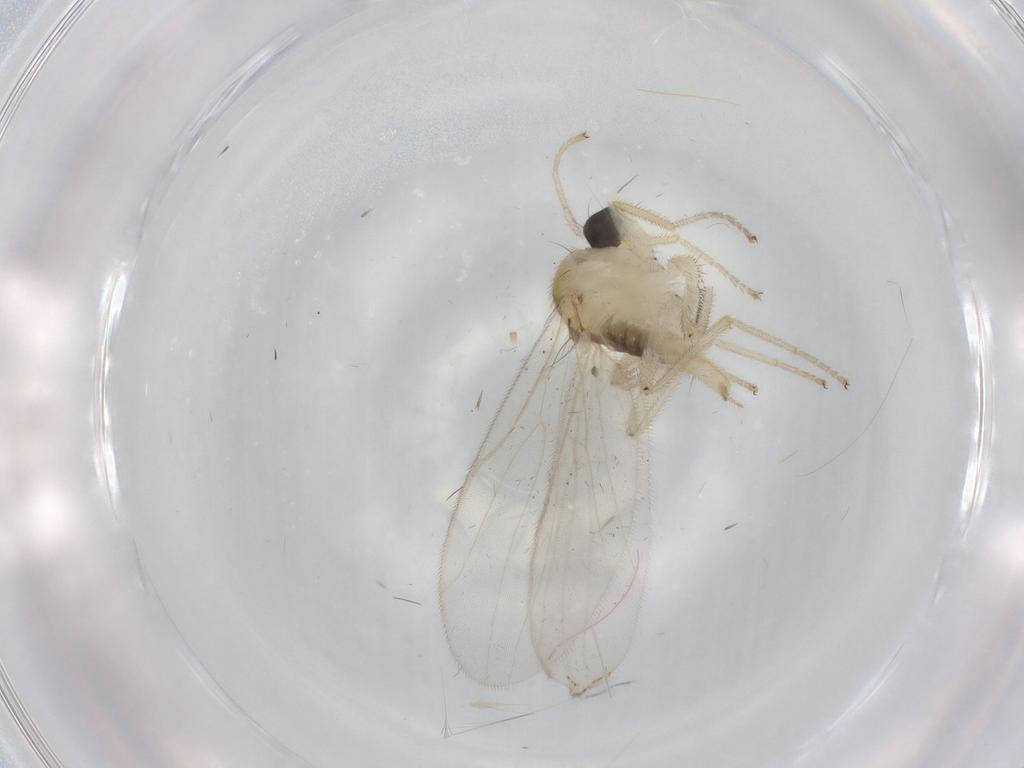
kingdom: Animalia
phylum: Arthropoda
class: Insecta
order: Diptera
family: Hybotidae
